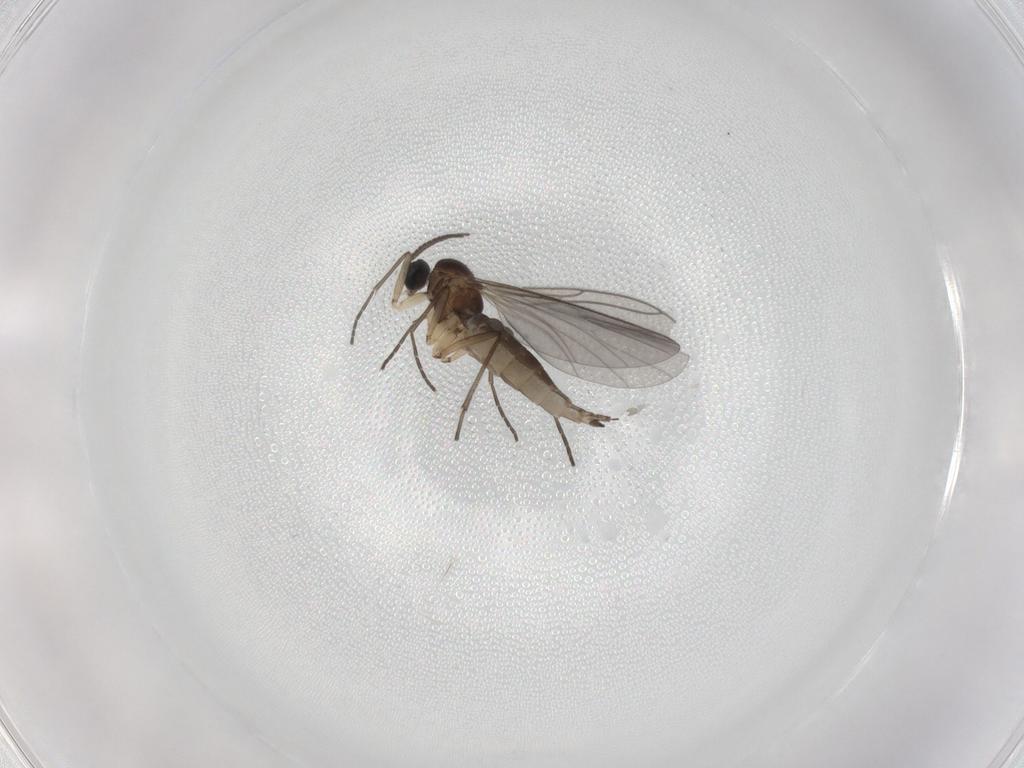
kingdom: Animalia
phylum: Arthropoda
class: Insecta
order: Diptera
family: Sciaridae
